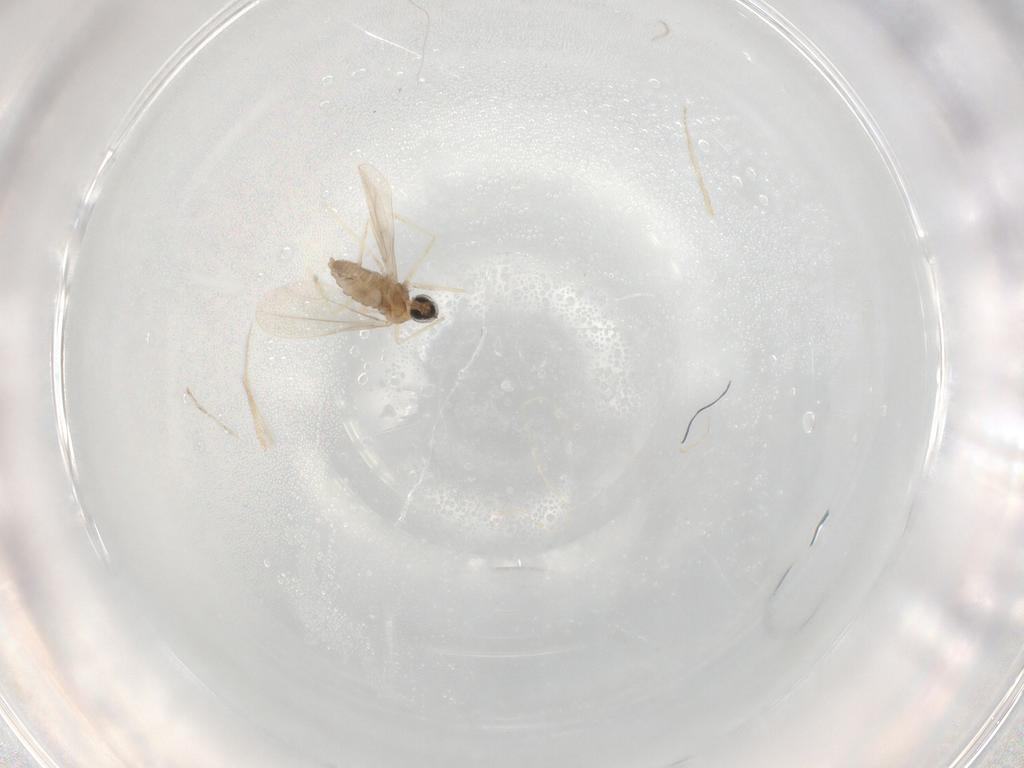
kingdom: Animalia
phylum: Arthropoda
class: Insecta
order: Diptera
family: Cecidomyiidae
